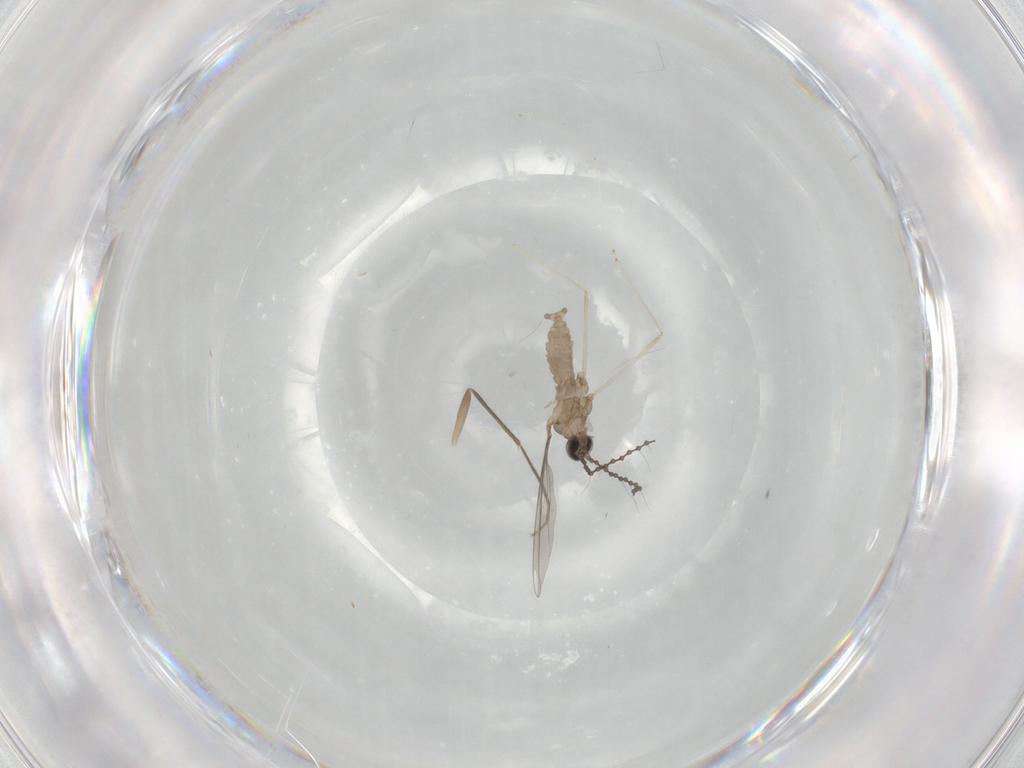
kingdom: Animalia
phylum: Arthropoda
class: Insecta
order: Diptera
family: Cecidomyiidae
